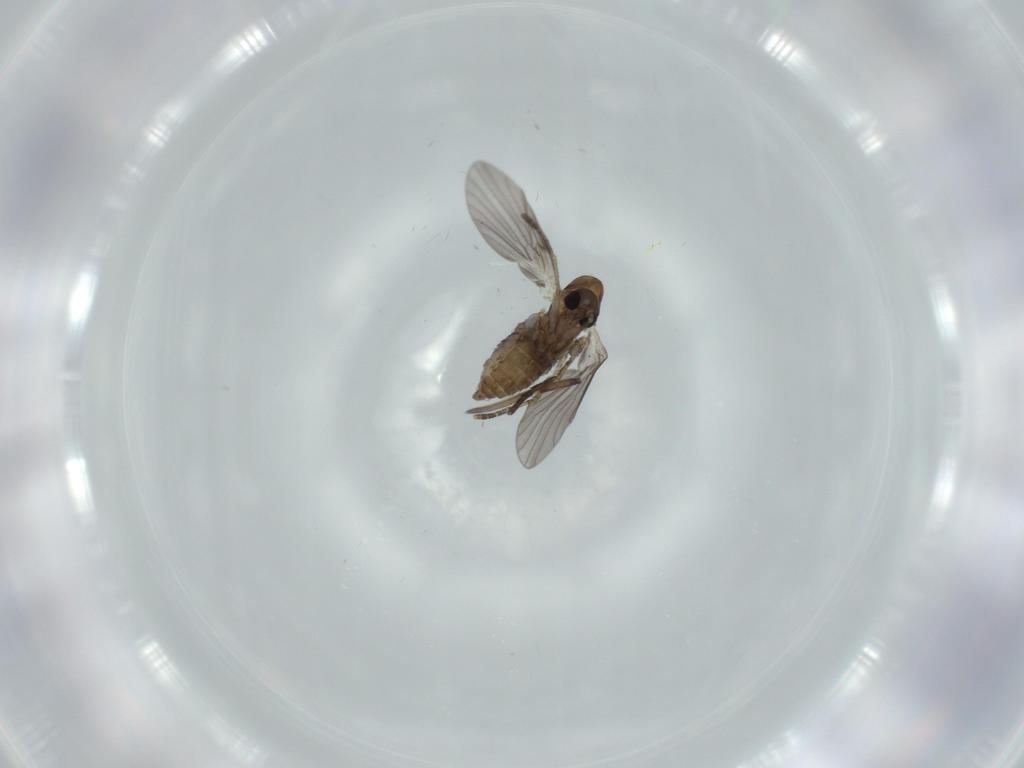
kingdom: Animalia
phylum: Arthropoda
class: Insecta
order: Diptera
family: Psychodidae
